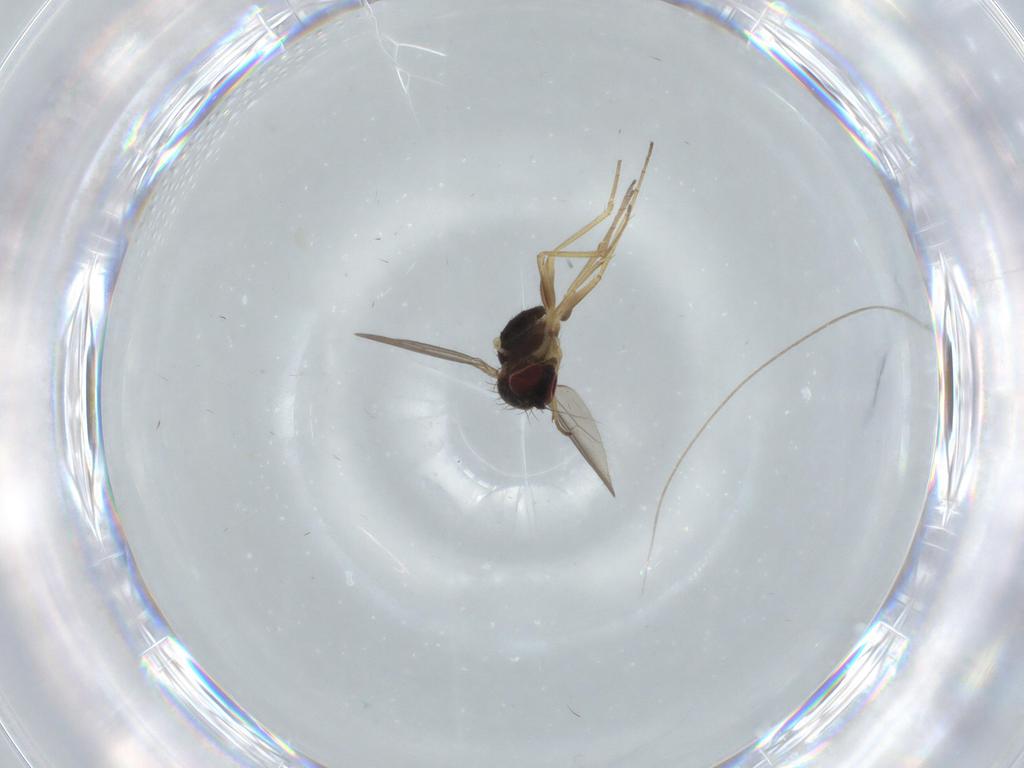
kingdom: Animalia
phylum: Arthropoda
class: Insecta
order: Diptera
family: Dolichopodidae
